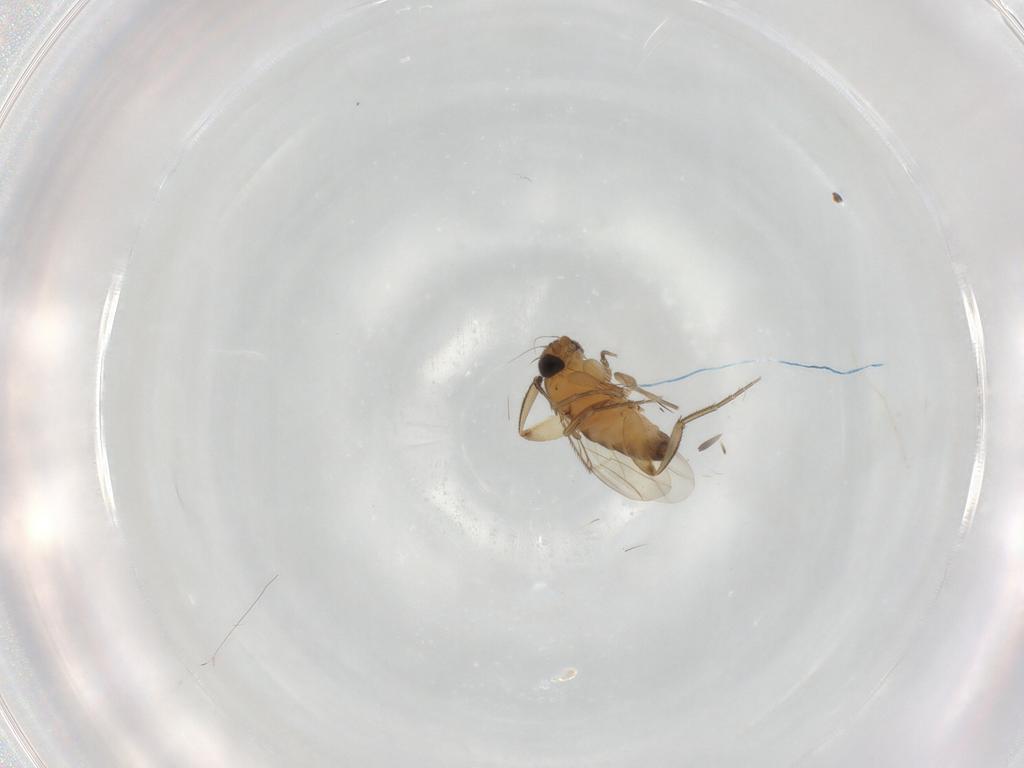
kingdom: Animalia
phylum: Arthropoda
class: Insecta
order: Diptera
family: Phoridae
